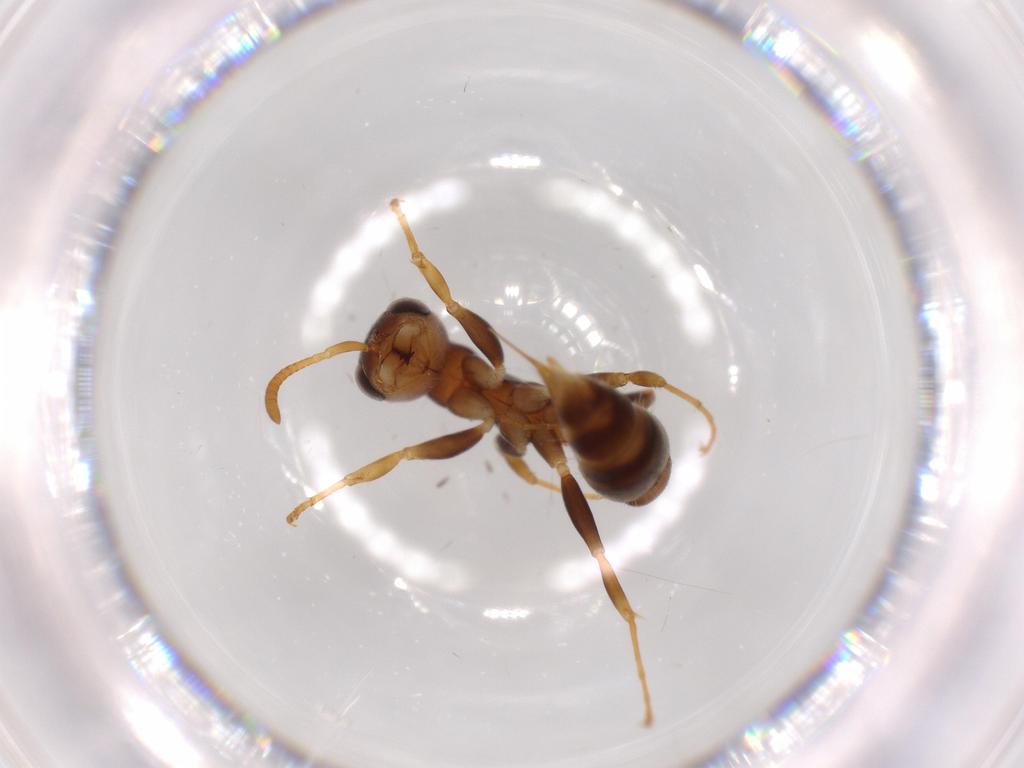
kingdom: Animalia
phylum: Arthropoda
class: Insecta
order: Hymenoptera
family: Formicidae
